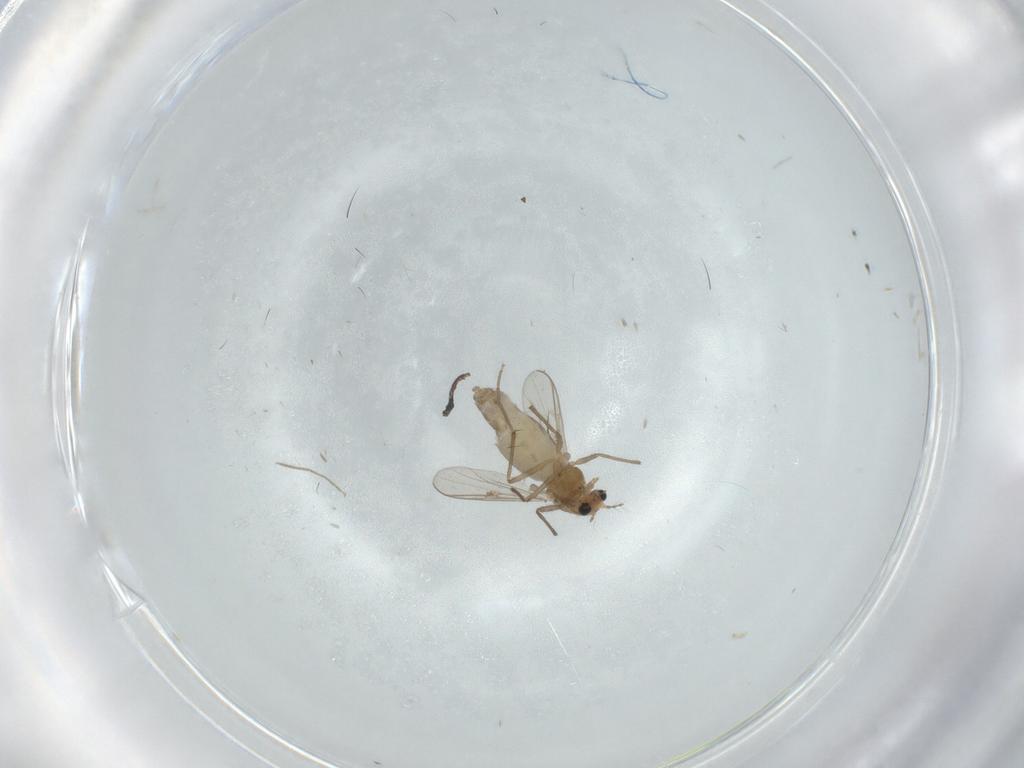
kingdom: Animalia
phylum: Arthropoda
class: Insecta
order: Diptera
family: Chironomidae
